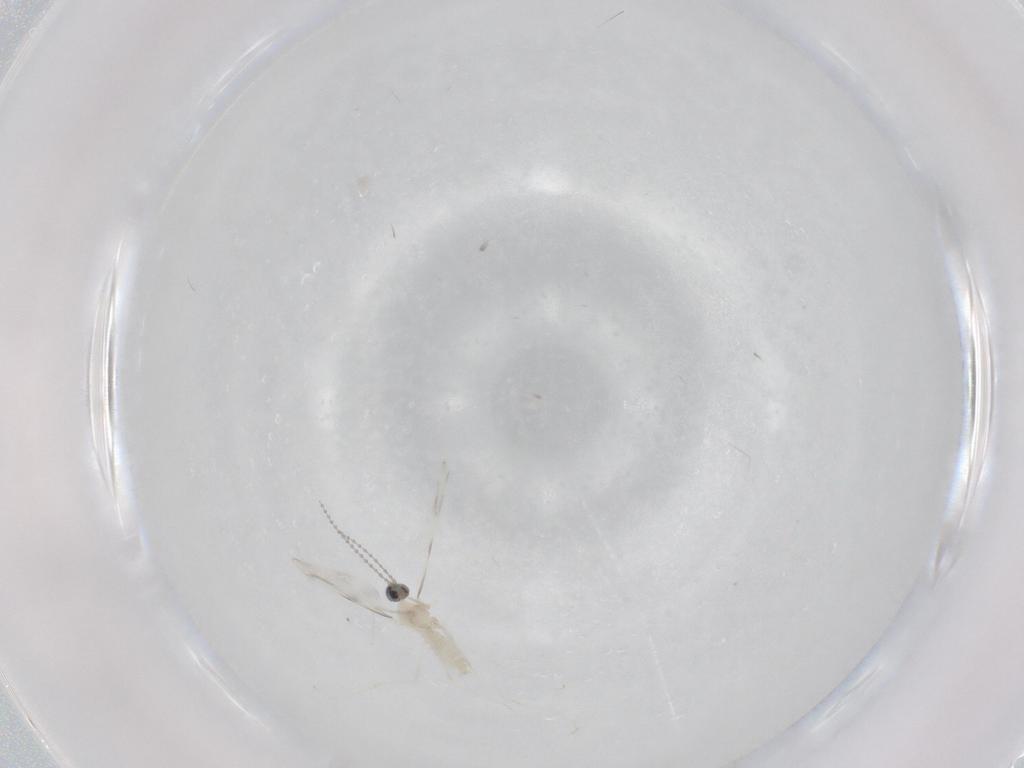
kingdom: Animalia
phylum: Arthropoda
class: Insecta
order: Diptera
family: Cecidomyiidae
